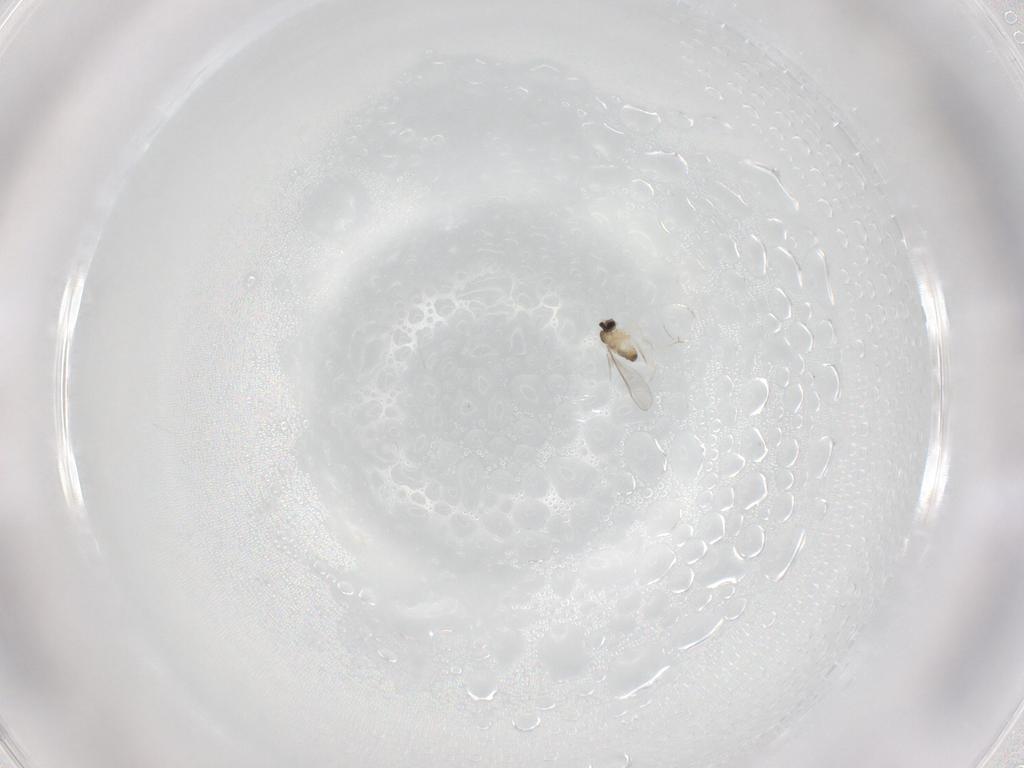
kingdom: Animalia
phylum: Arthropoda
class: Insecta
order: Diptera
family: Cecidomyiidae
